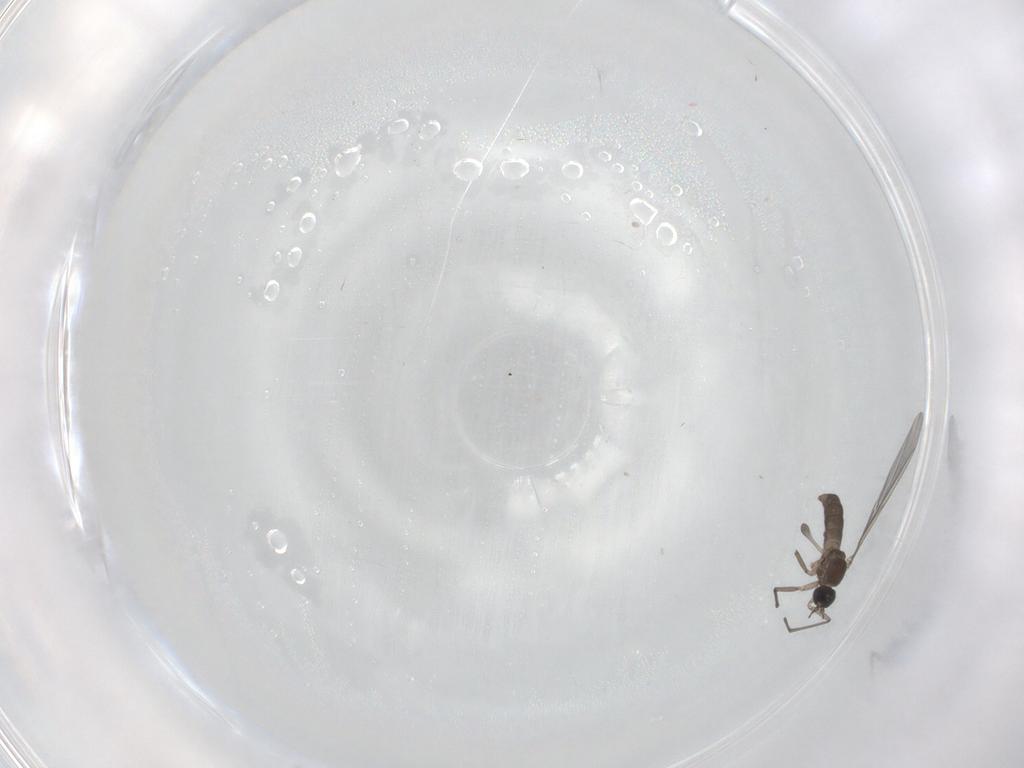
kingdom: Animalia
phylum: Arthropoda
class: Insecta
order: Diptera
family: Sciaridae
